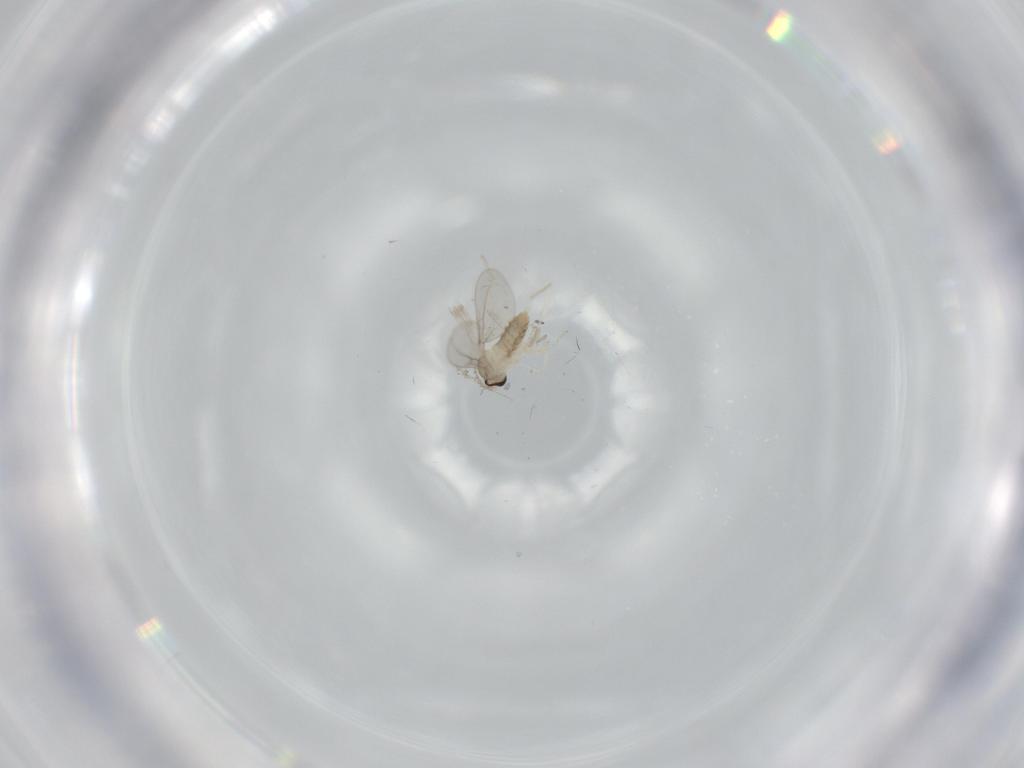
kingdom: Animalia
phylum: Arthropoda
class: Insecta
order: Diptera
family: Cecidomyiidae
